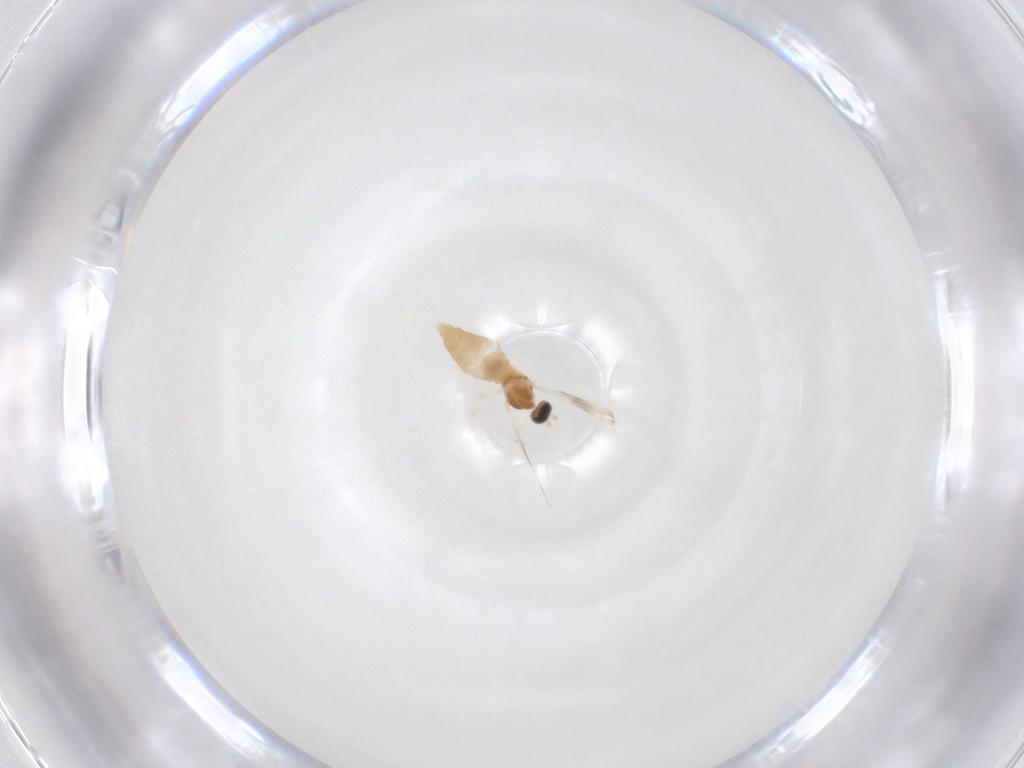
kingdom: Animalia
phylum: Arthropoda
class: Insecta
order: Diptera
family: Cecidomyiidae
